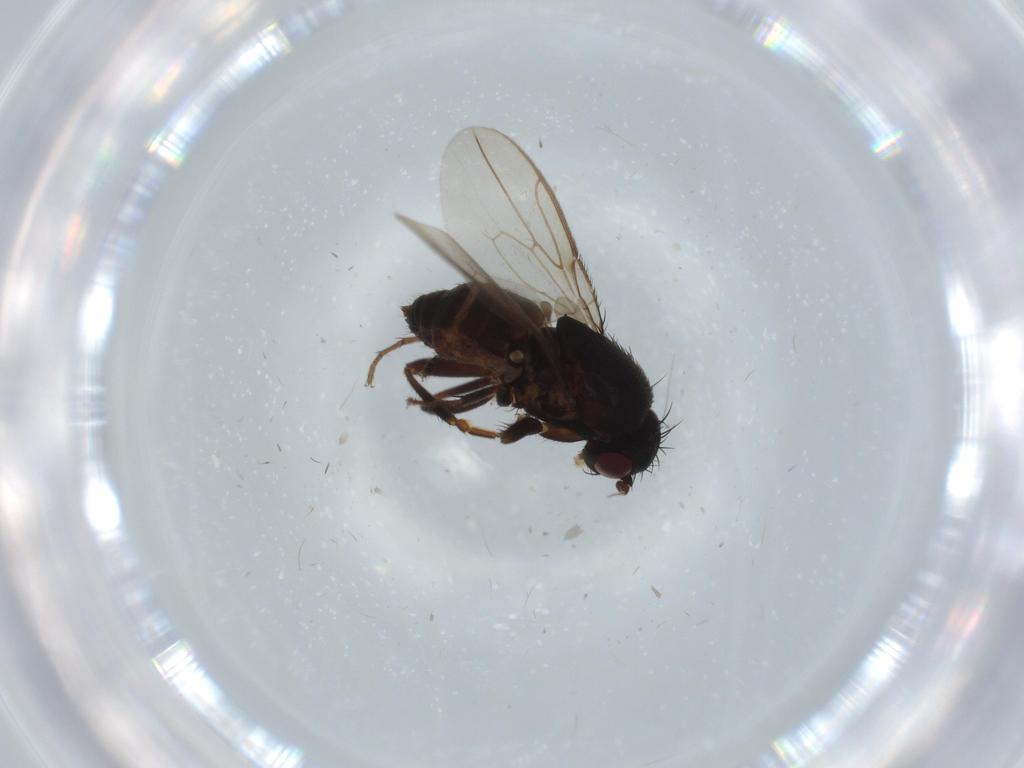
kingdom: Animalia
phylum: Arthropoda
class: Insecta
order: Diptera
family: Sphaeroceridae
